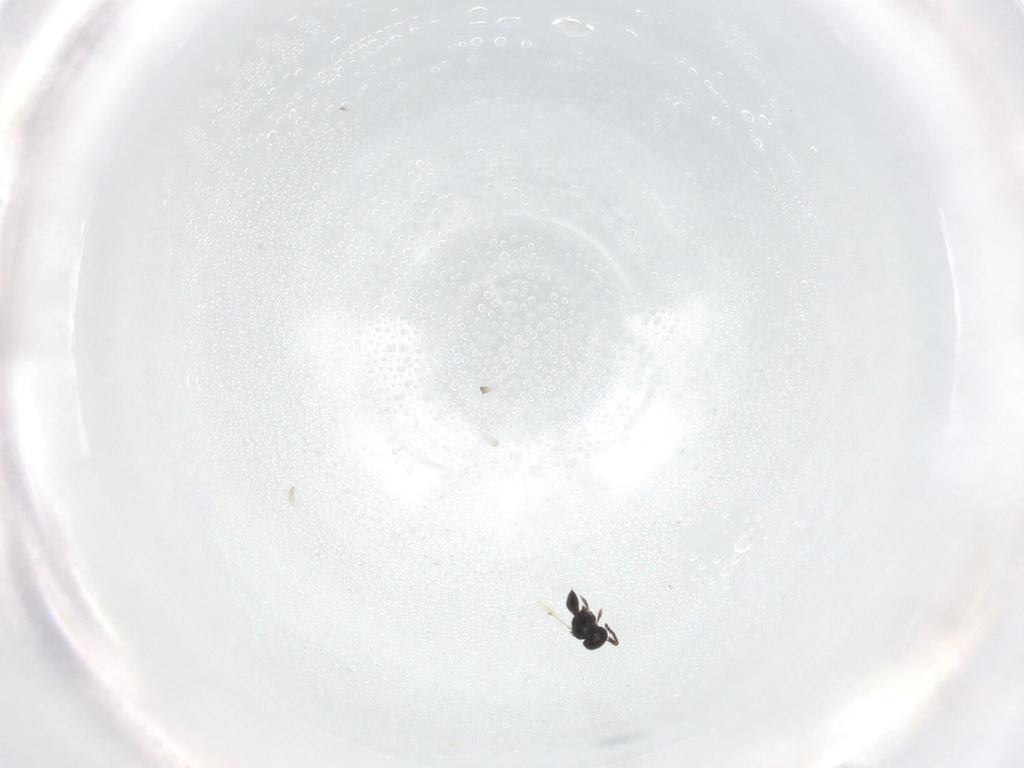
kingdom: Animalia
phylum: Arthropoda
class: Insecta
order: Hymenoptera
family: Scelionidae
